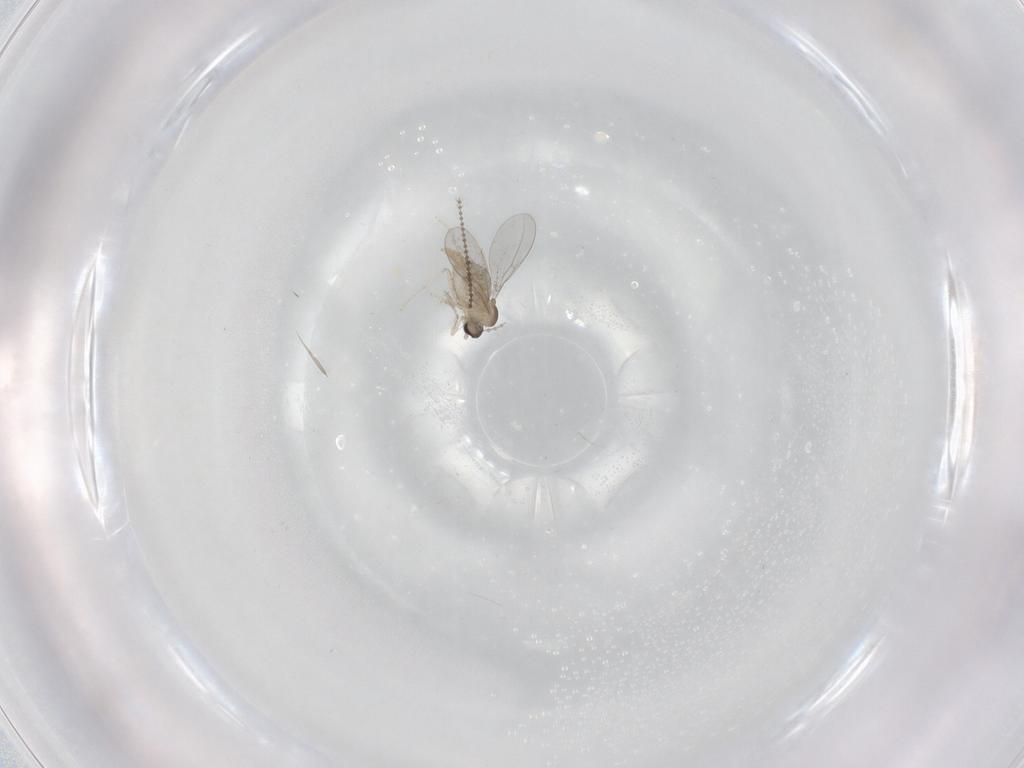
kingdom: Animalia
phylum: Arthropoda
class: Insecta
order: Diptera
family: Chironomidae
